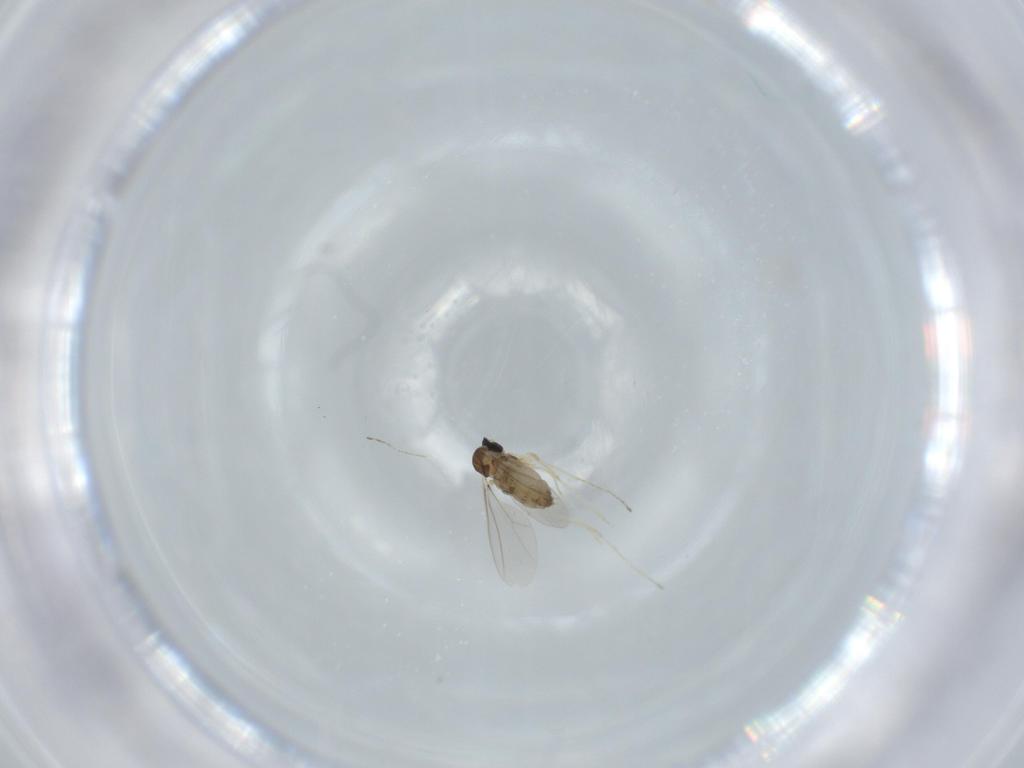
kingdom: Animalia
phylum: Arthropoda
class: Insecta
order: Diptera
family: Cecidomyiidae
